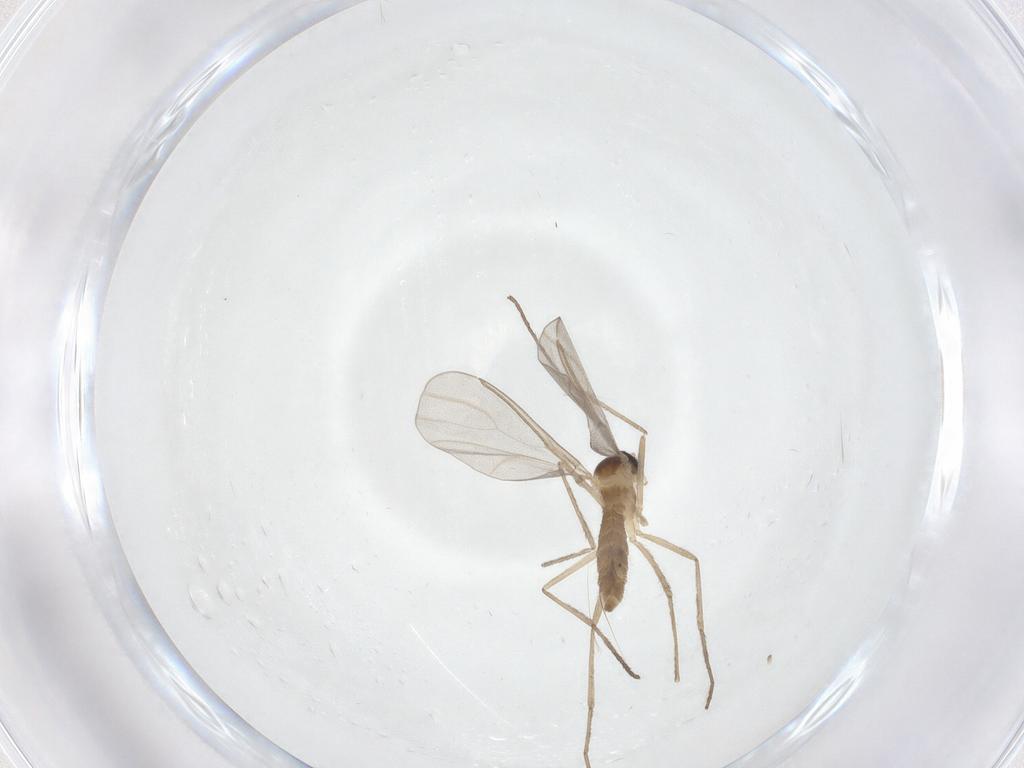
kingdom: Animalia
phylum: Arthropoda
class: Insecta
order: Diptera
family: Cecidomyiidae
